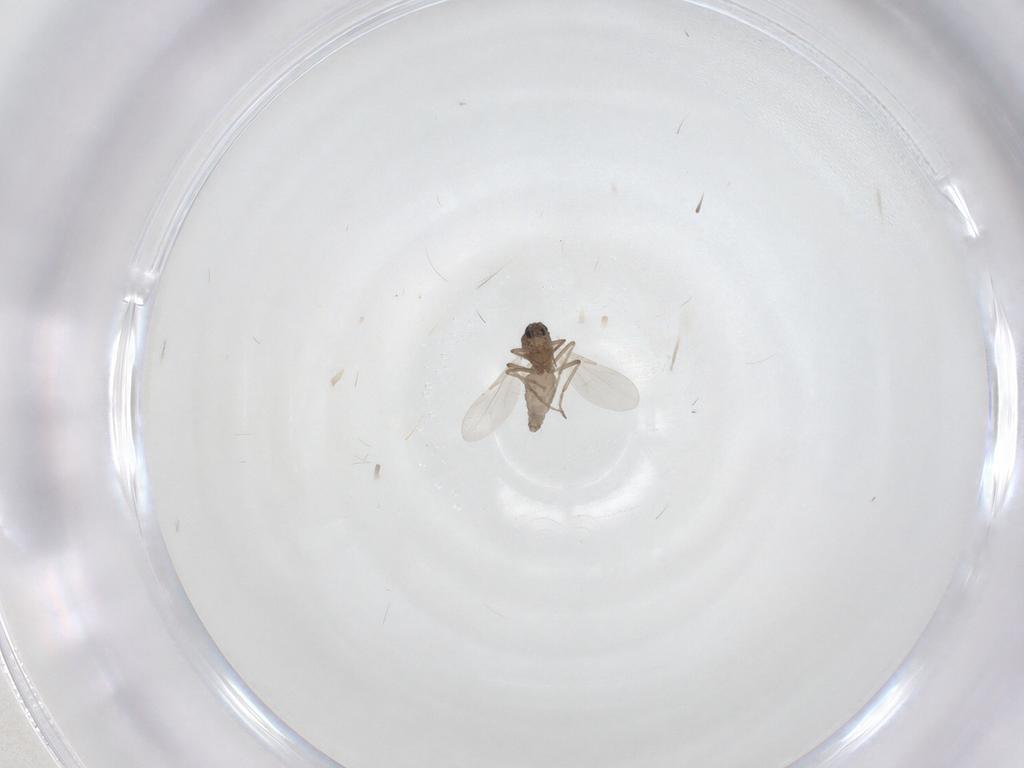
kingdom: Animalia
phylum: Arthropoda
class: Insecta
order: Diptera
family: Ceratopogonidae
